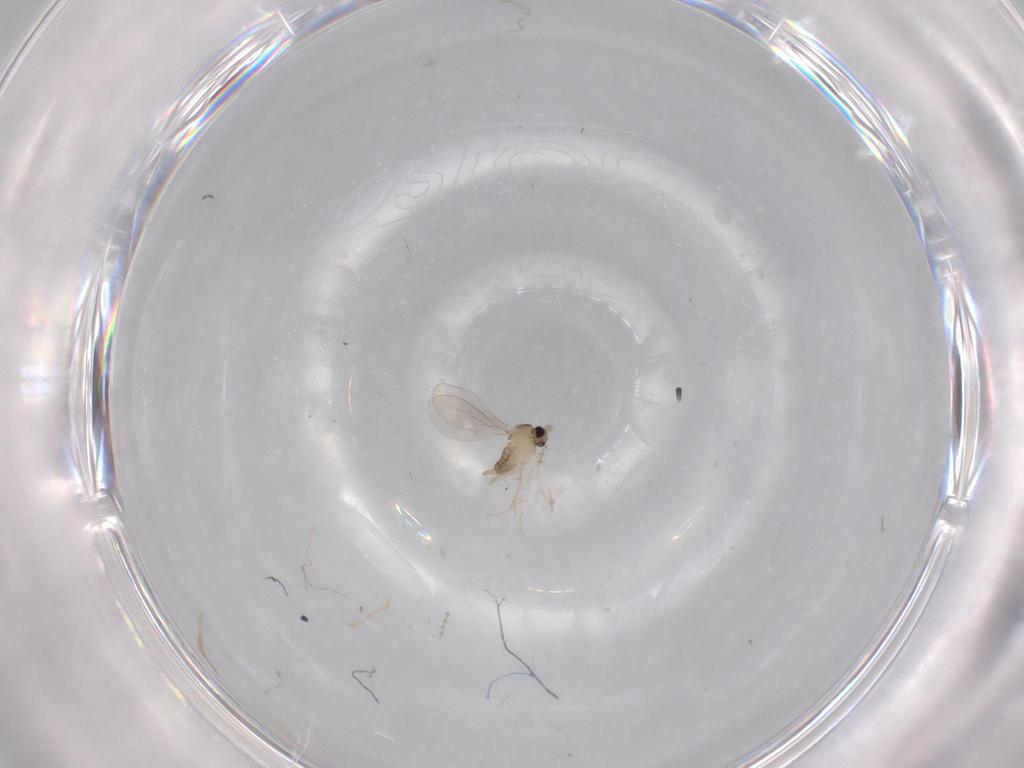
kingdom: Animalia
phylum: Arthropoda
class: Insecta
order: Diptera
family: Cecidomyiidae
